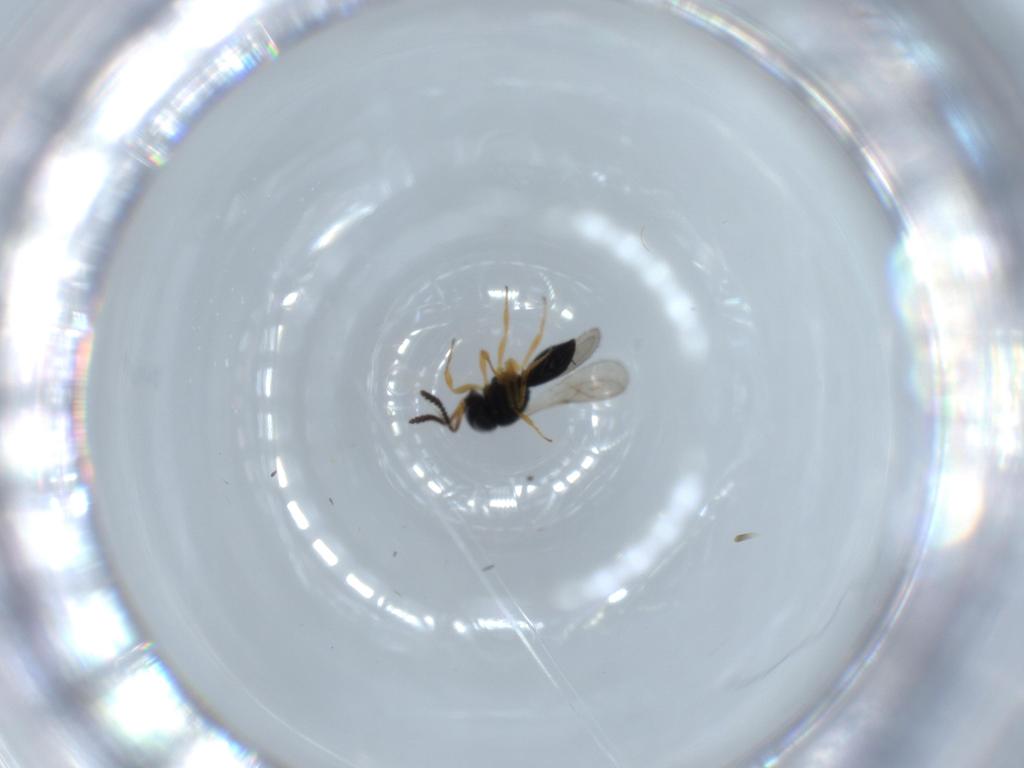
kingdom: Animalia
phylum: Arthropoda
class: Insecta
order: Hymenoptera
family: Scelionidae
